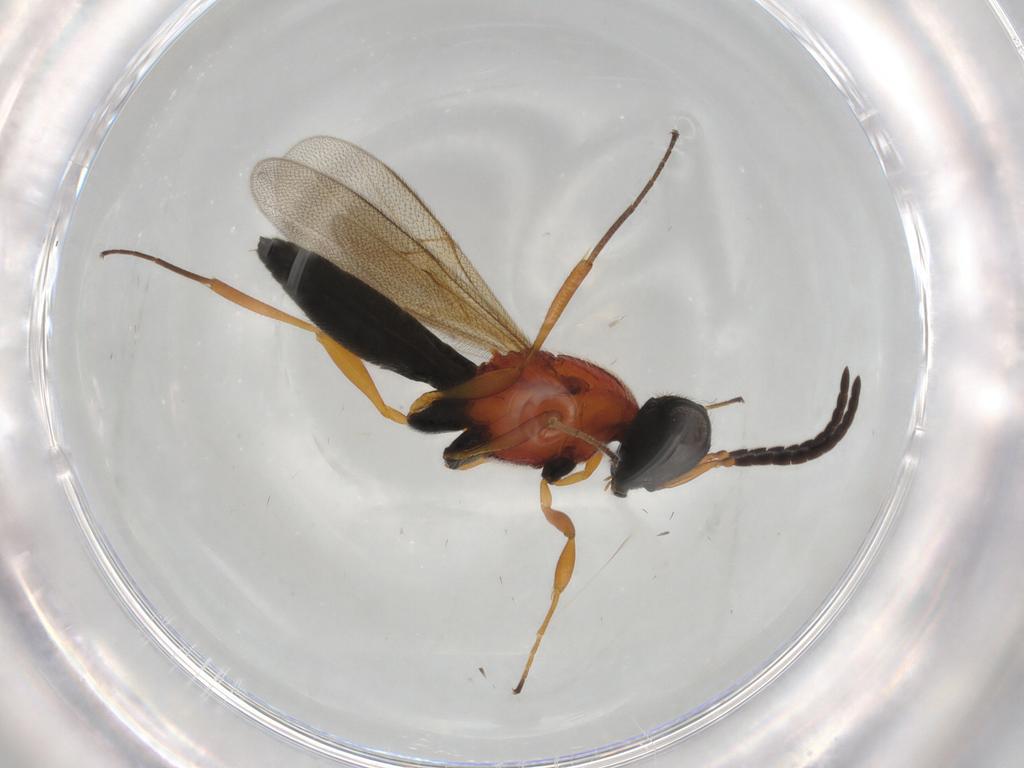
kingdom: Animalia
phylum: Arthropoda
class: Insecta
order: Hymenoptera
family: Scelionidae
